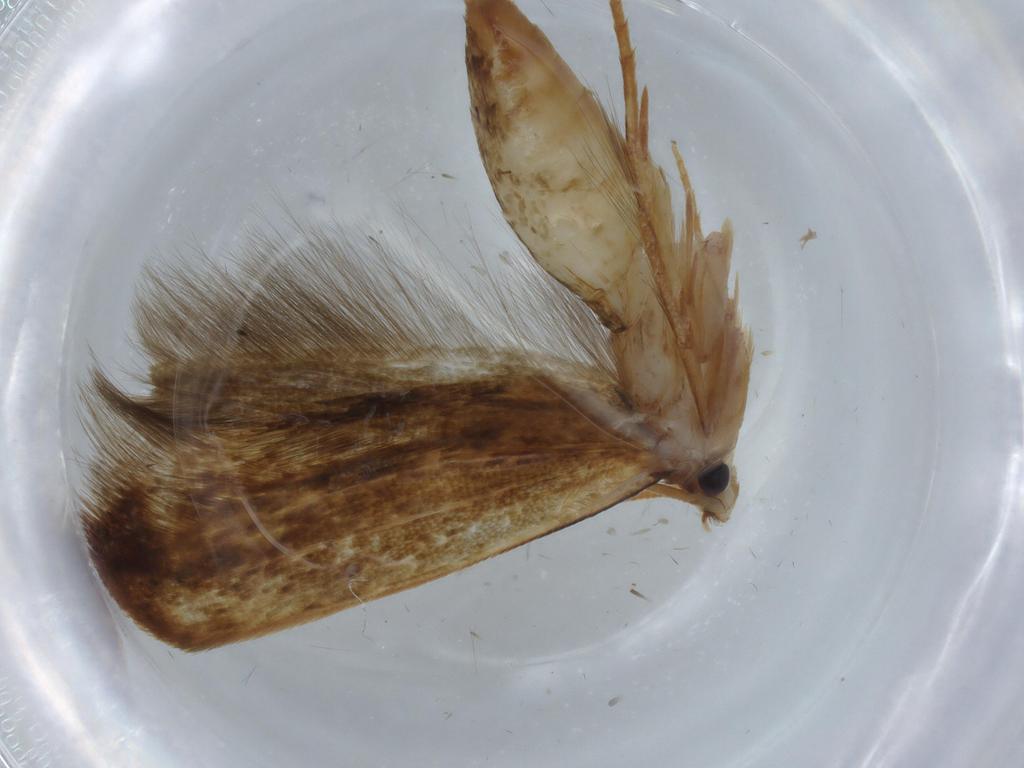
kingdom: Animalia
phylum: Arthropoda
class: Insecta
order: Lepidoptera
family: Tineidae
